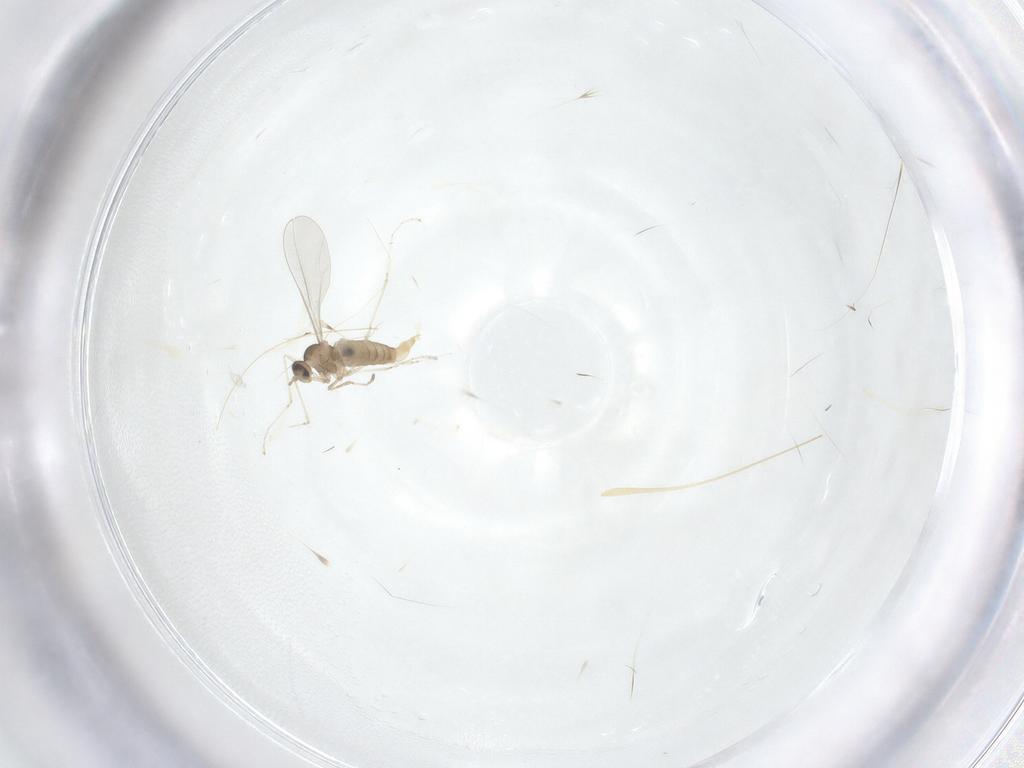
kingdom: Animalia
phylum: Arthropoda
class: Insecta
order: Diptera
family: Cecidomyiidae
